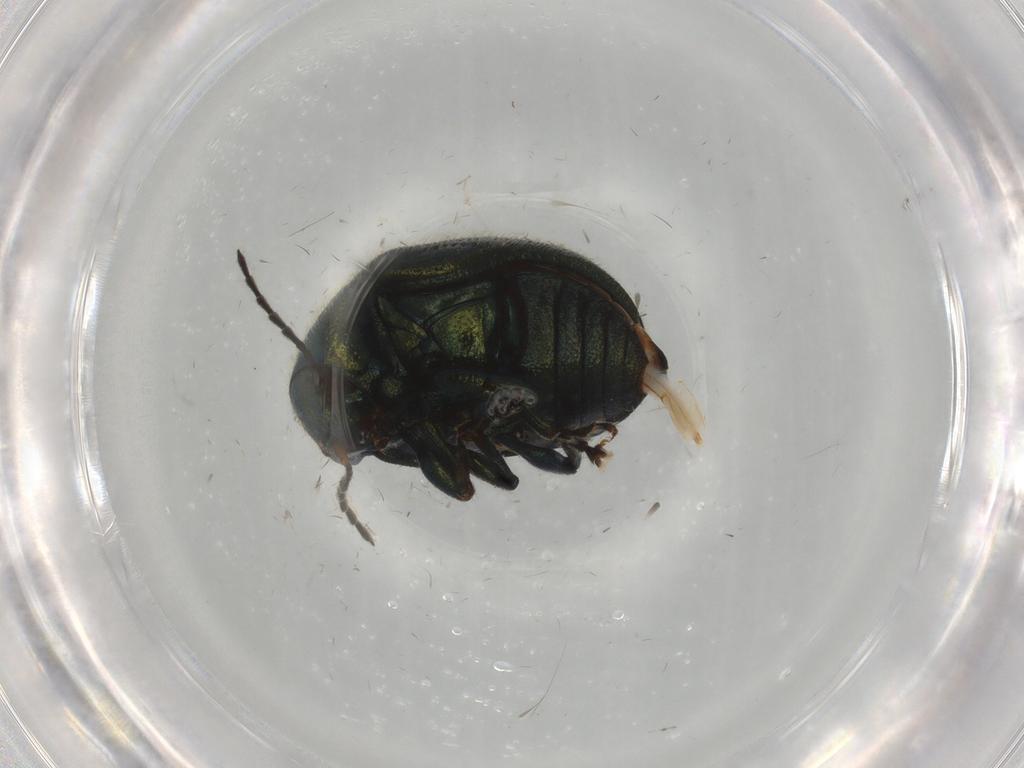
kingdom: Animalia
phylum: Arthropoda
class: Insecta
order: Coleoptera
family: Chrysomelidae
